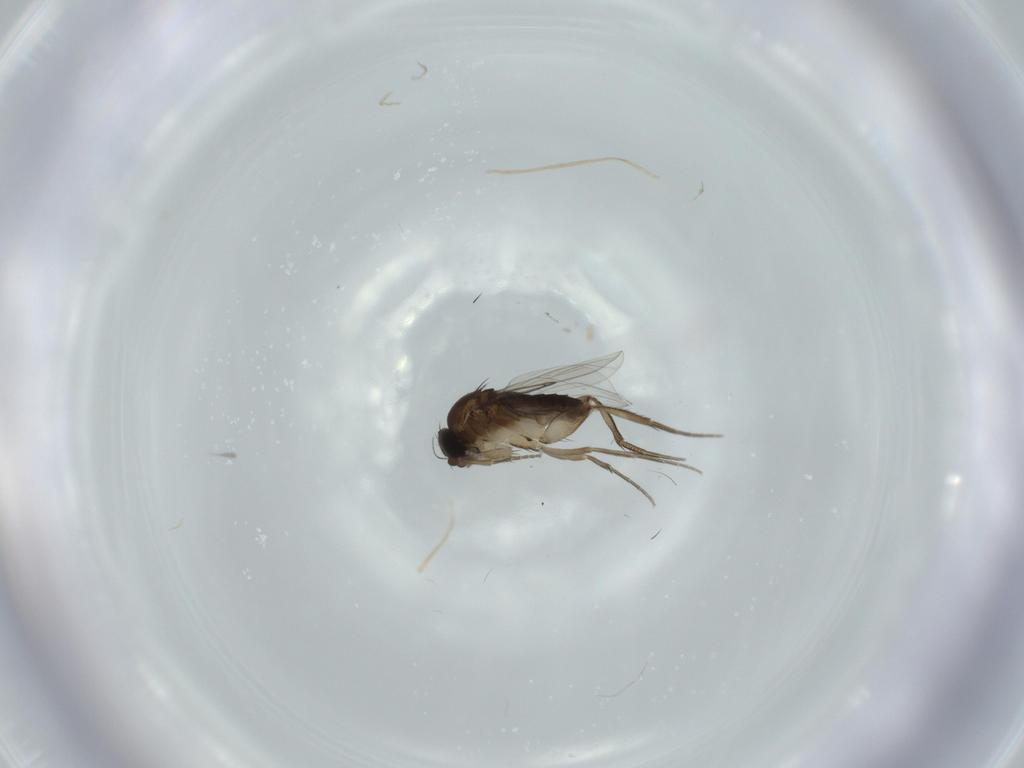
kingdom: Animalia
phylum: Arthropoda
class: Insecta
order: Diptera
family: Phoridae
